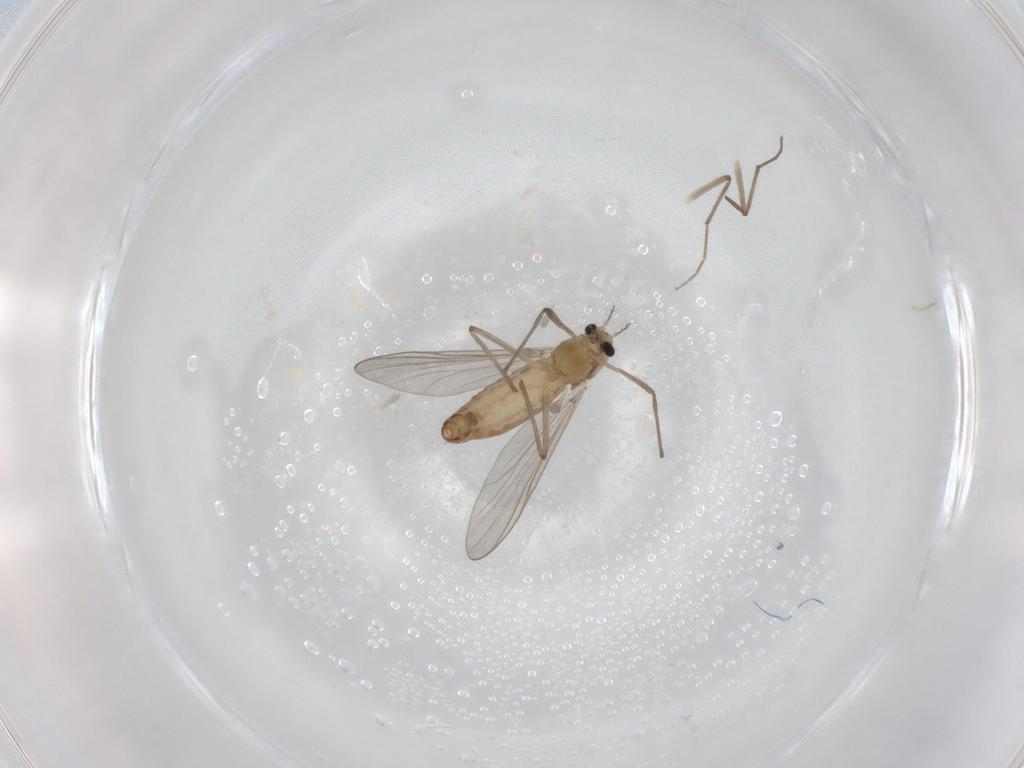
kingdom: Animalia
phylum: Arthropoda
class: Insecta
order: Diptera
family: Chironomidae
